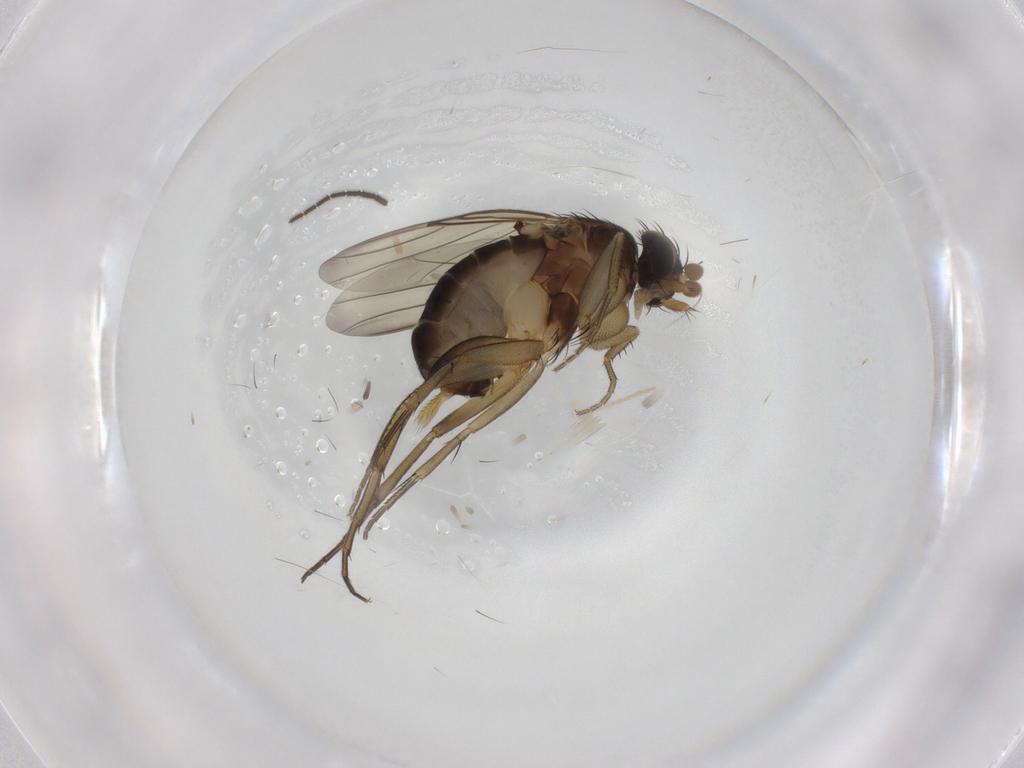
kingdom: Animalia
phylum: Arthropoda
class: Insecta
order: Diptera
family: Phoridae
